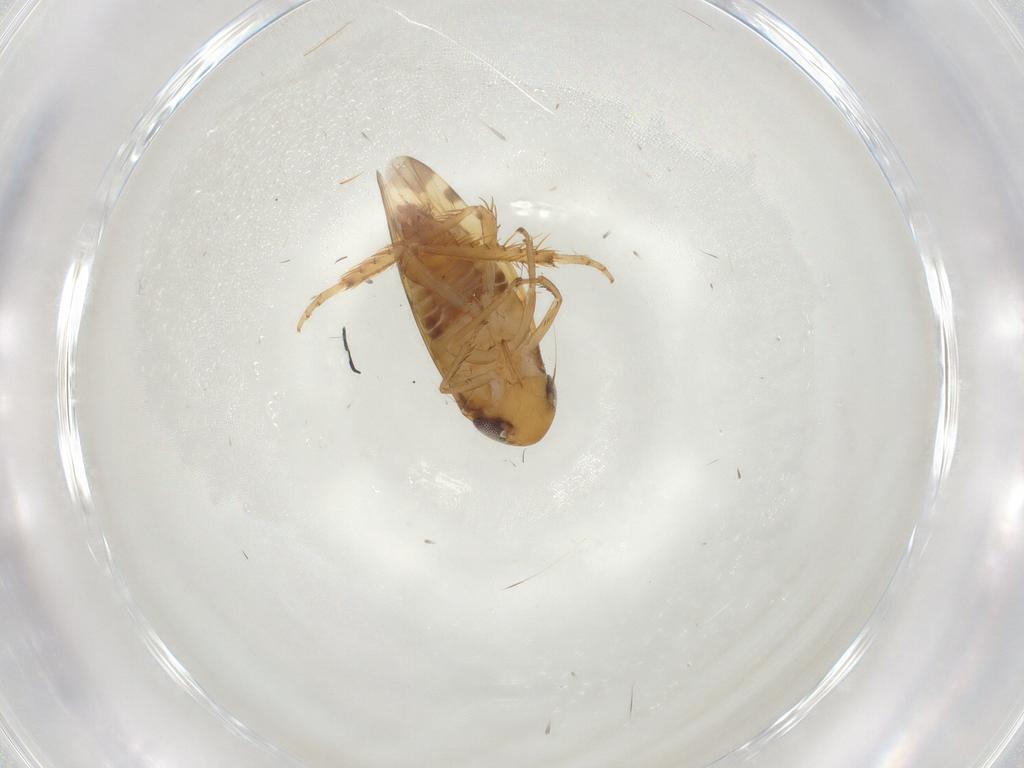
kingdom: Animalia
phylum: Arthropoda
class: Insecta
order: Hemiptera
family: Cicadellidae
